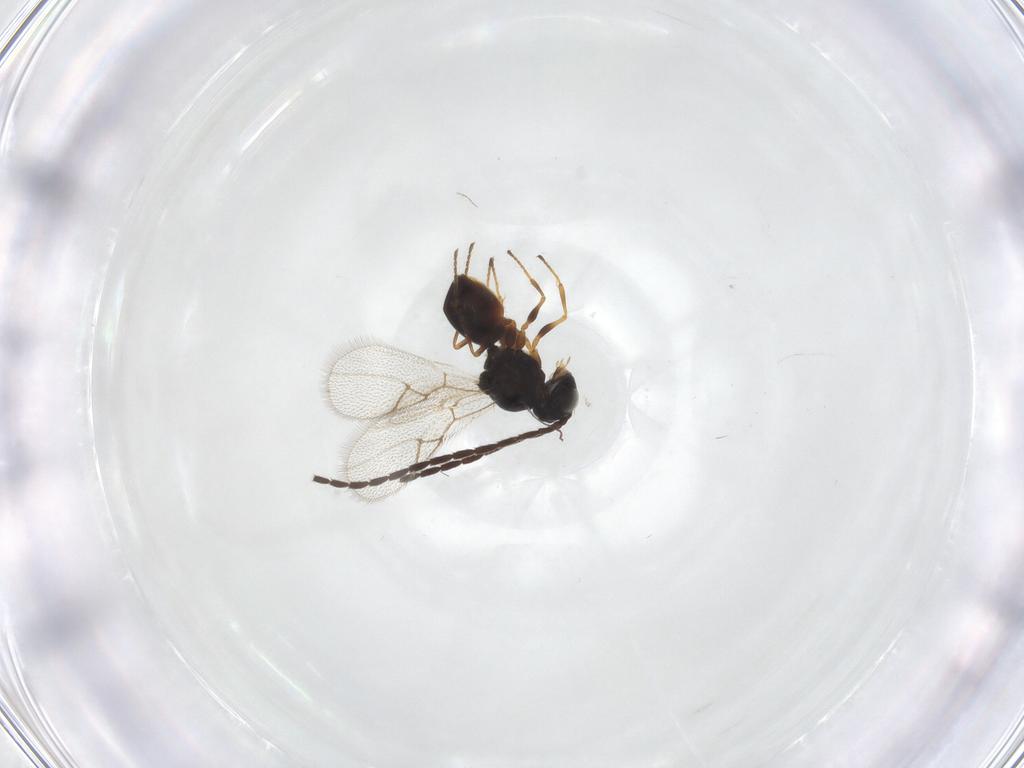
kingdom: Animalia
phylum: Arthropoda
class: Insecta
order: Hymenoptera
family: Figitidae
